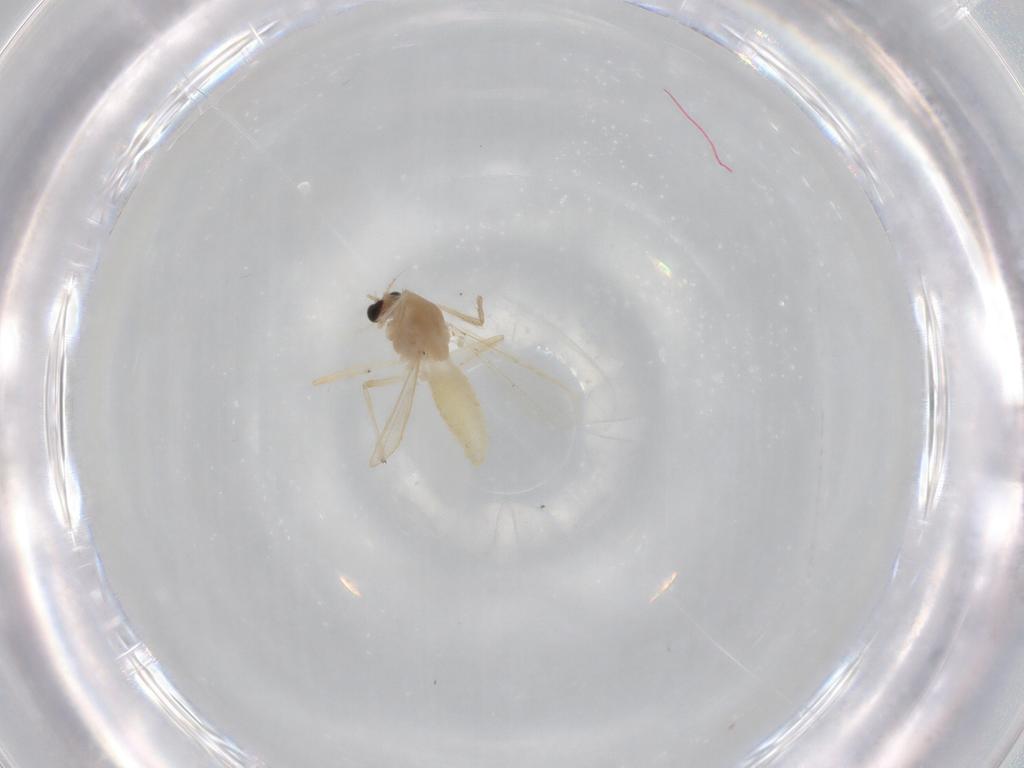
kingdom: Animalia
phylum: Arthropoda
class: Insecta
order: Diptera
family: Chironomidae
